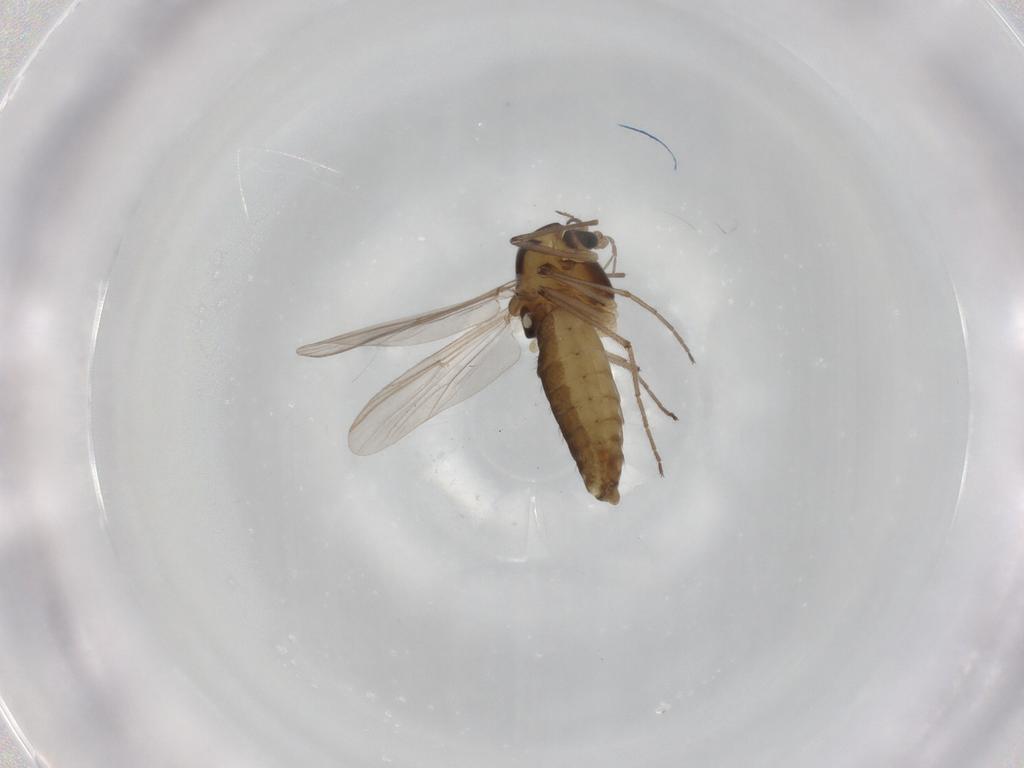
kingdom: Animalia
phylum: Arthropoda
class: Insecta
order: Diptera
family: Chironomidae
